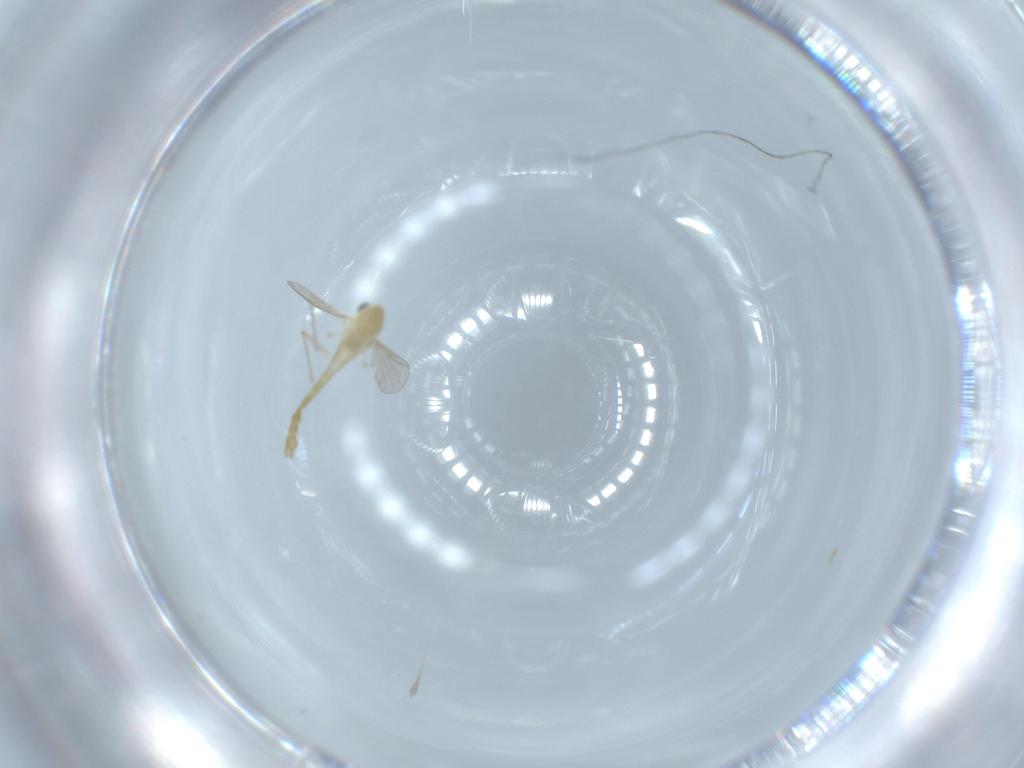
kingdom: Animalia
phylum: Arthropoda
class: Insecta
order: Diptera
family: Chironomidae
